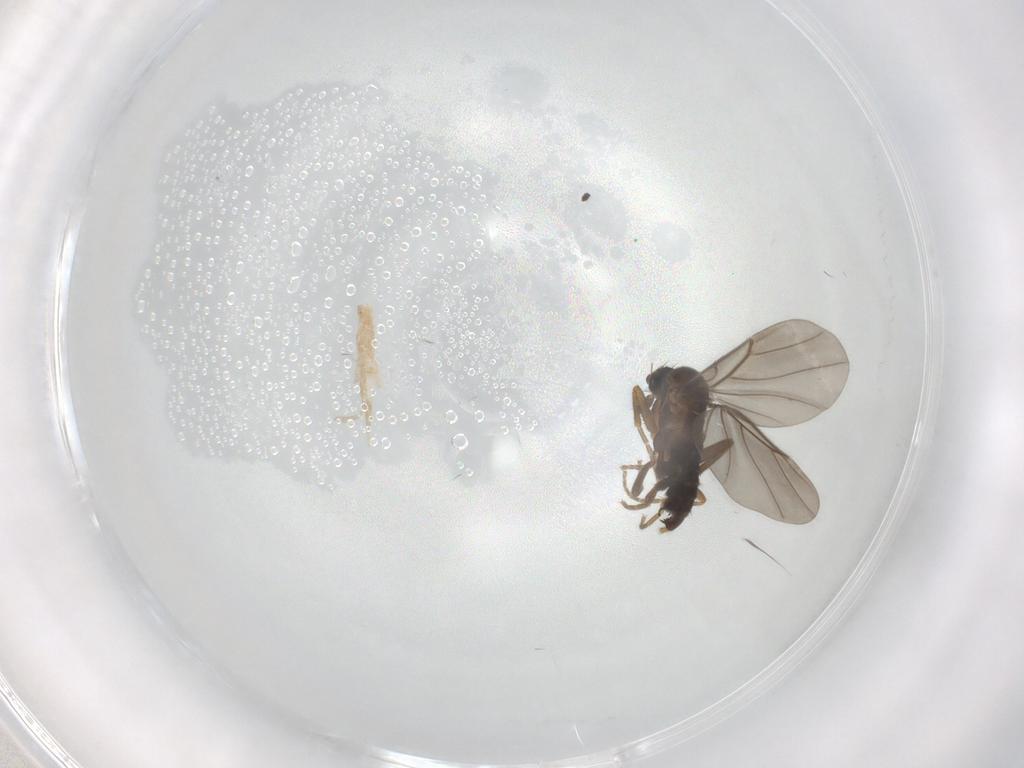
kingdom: Animalia
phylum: Arthropoda
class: Insecta
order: Diptera
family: Phoridae
